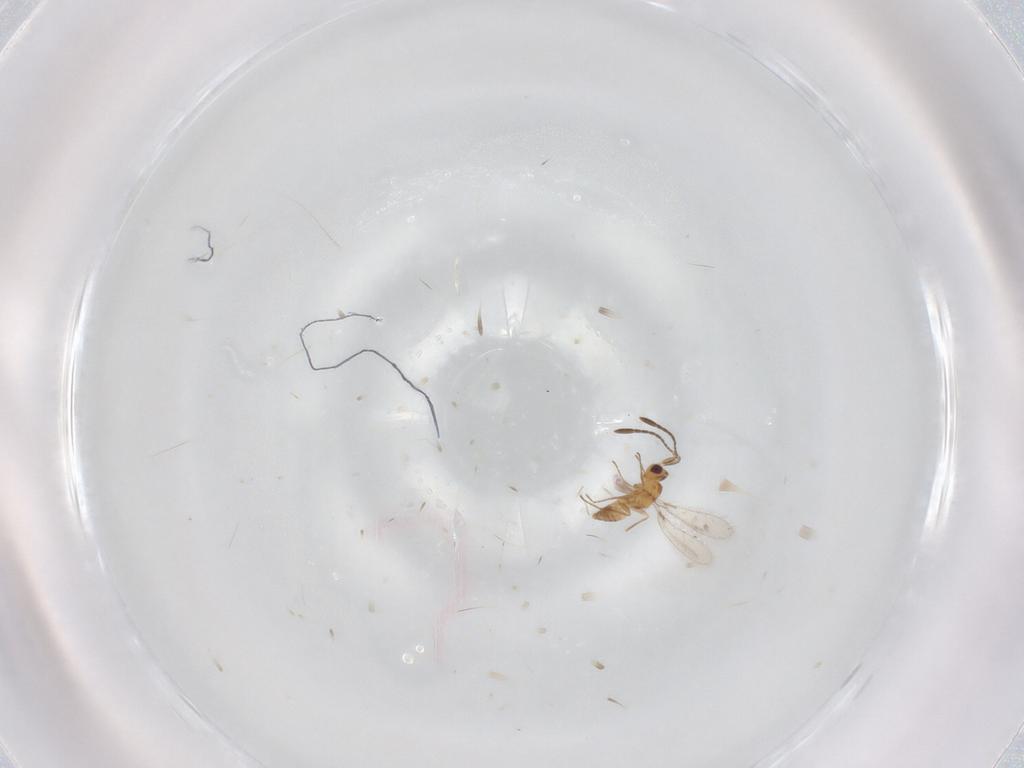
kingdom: Animalia
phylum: Arthropoda
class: Insecta
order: Hymenoptera
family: Mymaridae
